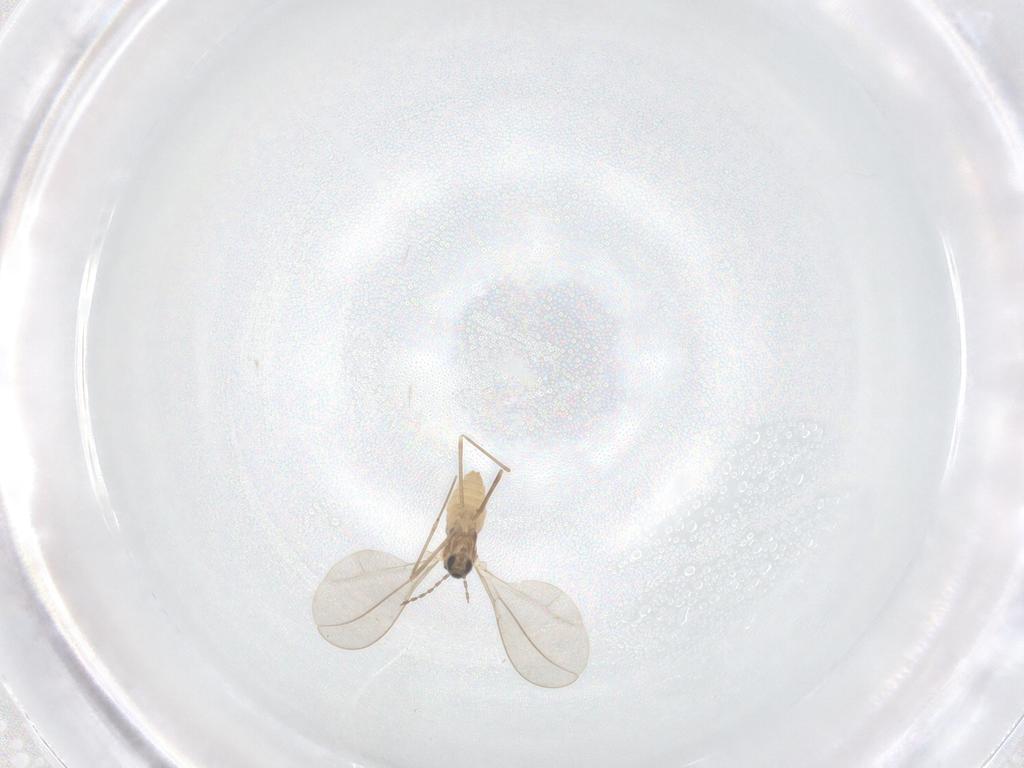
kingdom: Animalia
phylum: Arthropoda
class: Insecta
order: Diptera
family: Cecidomyiidae
